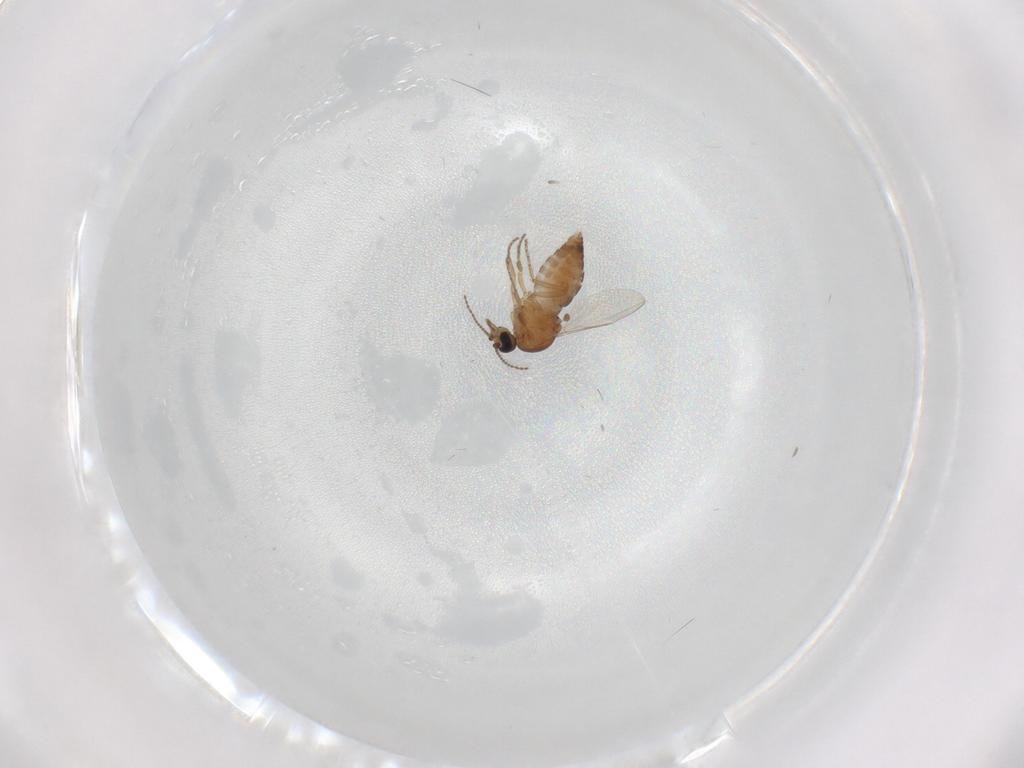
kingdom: Animalia
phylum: Arthropoda
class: Insecta
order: Diptera
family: Ceratopogonidae
